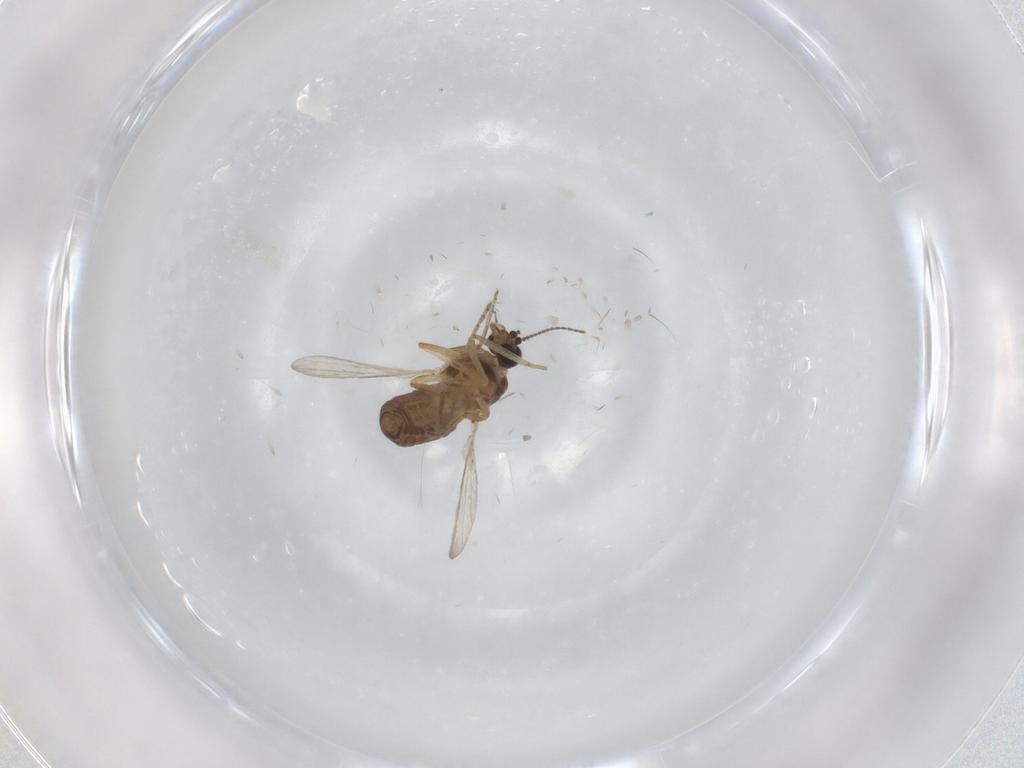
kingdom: Animalia
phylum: Arthropoda
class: Insecta
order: Diptera
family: Ceratopogonidae
